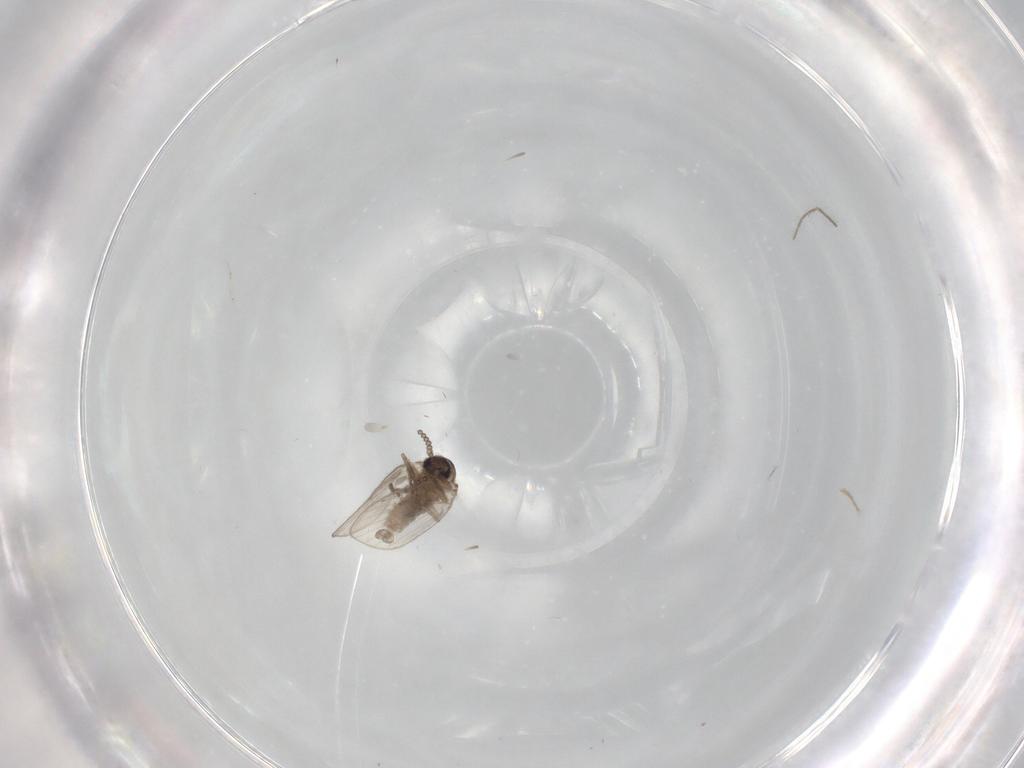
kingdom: Animalia
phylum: Arthropoda
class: Insecta
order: Diptera
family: Psychodidae
